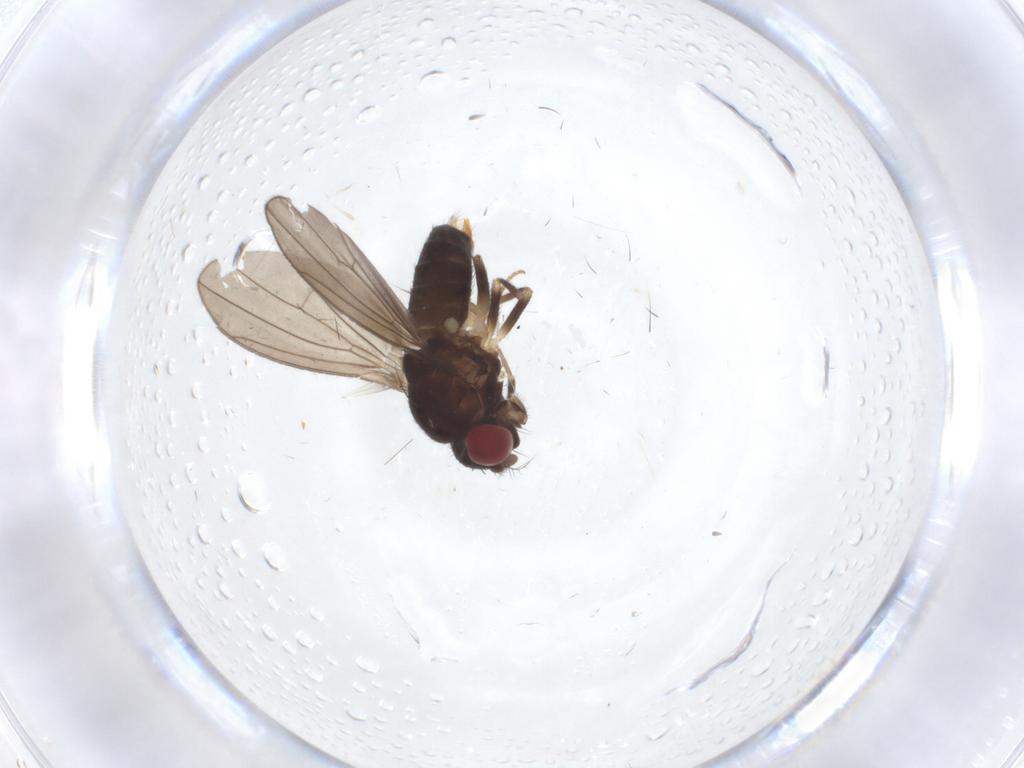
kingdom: Animalia
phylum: Arthropoda
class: Insecta
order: Diptera
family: Drosophilidae
